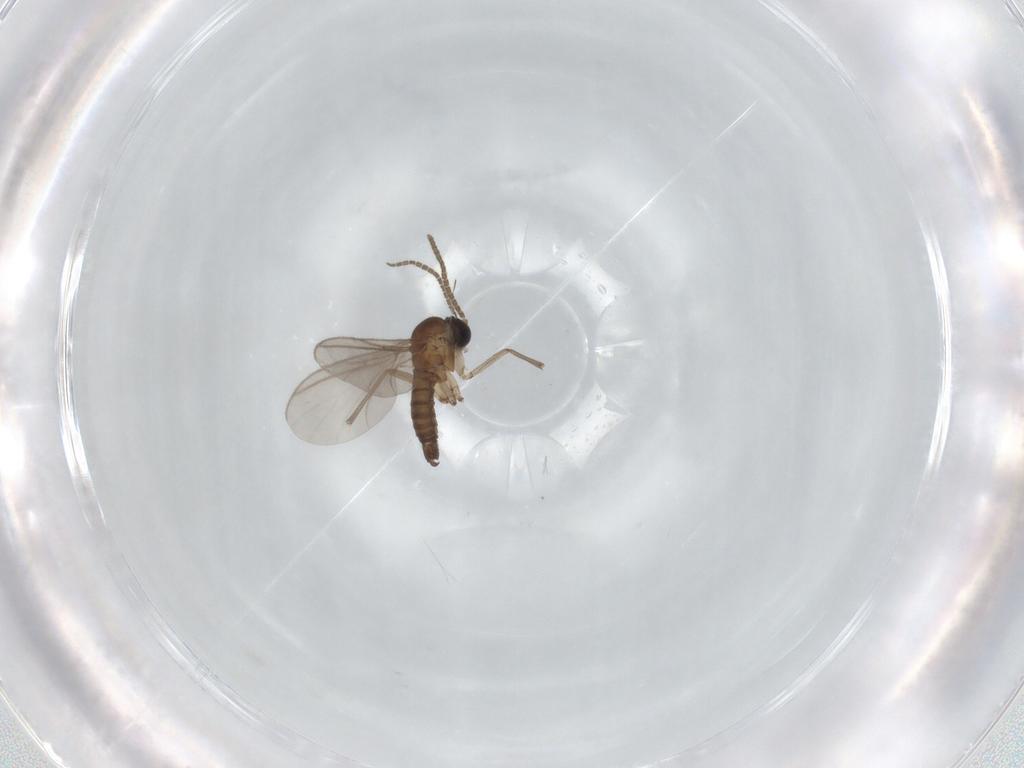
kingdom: Animalia
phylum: Arthropoda
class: Insecta
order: Diptera
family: Sciaridae
